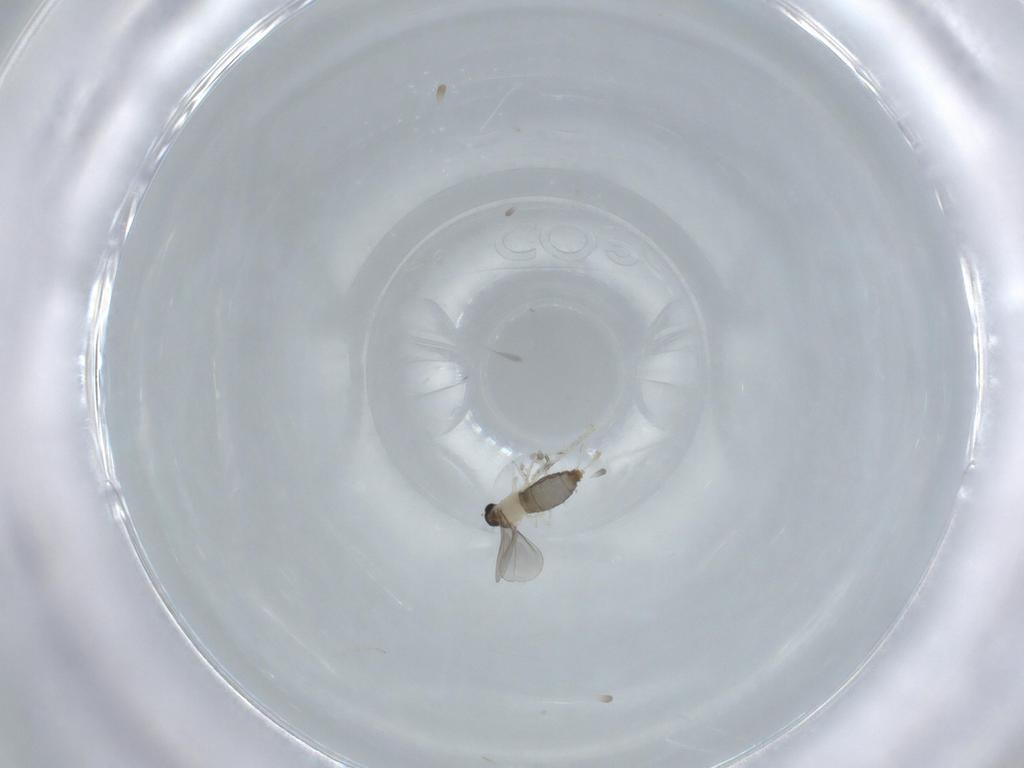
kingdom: Animalia
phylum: Arthropoda
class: Insecta
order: Diptera
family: Cecidomyiidae
